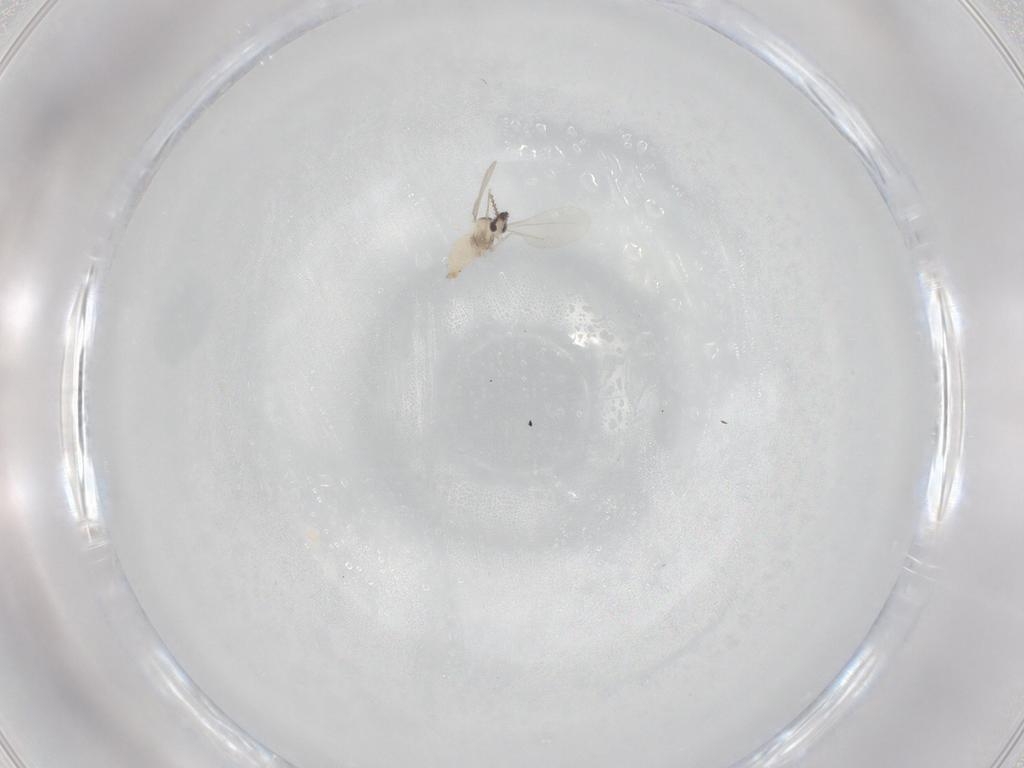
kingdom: Animalia
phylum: Arthropoda
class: Insecta
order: Diptera
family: Cecidomyiidae
